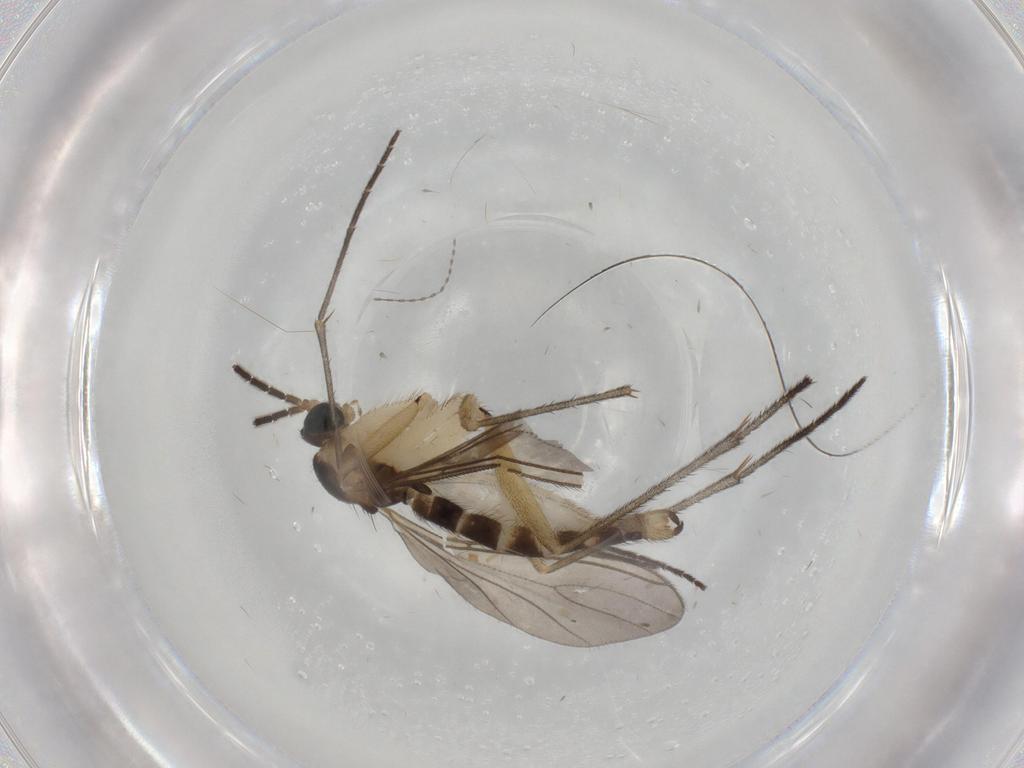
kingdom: Animalia
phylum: Arthropoda
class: Insecta
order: Diptera
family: Sciaridae
